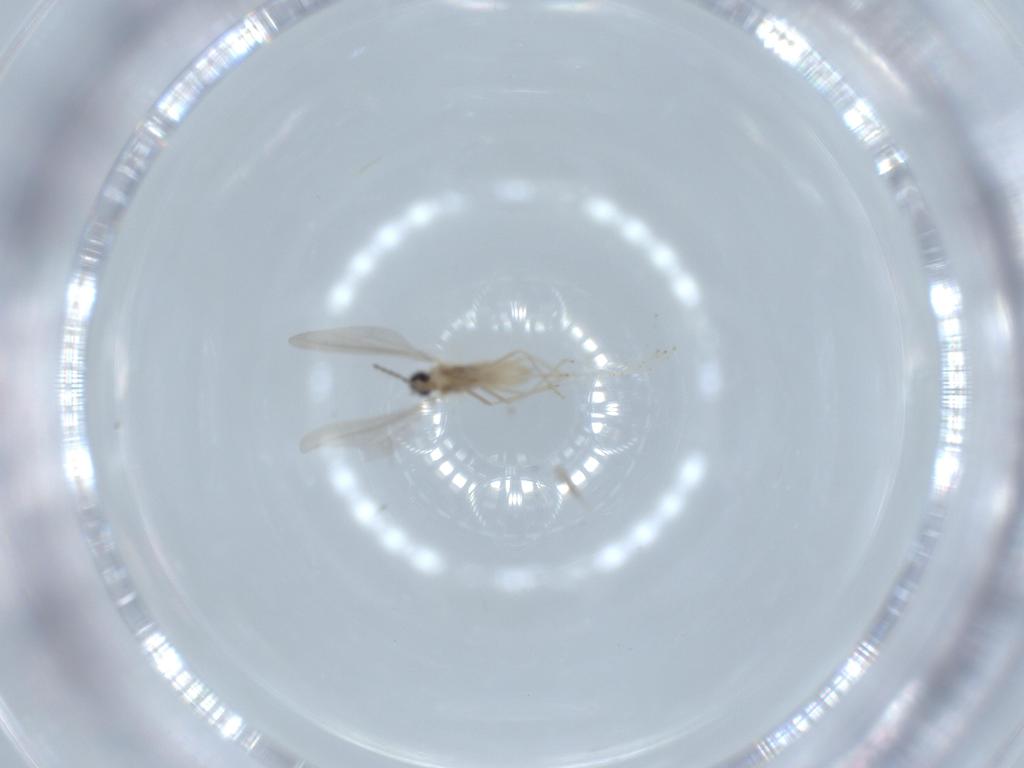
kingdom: Animalia
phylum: Arthropoda
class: Insecta
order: Diptera
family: Cecidomyiidae
